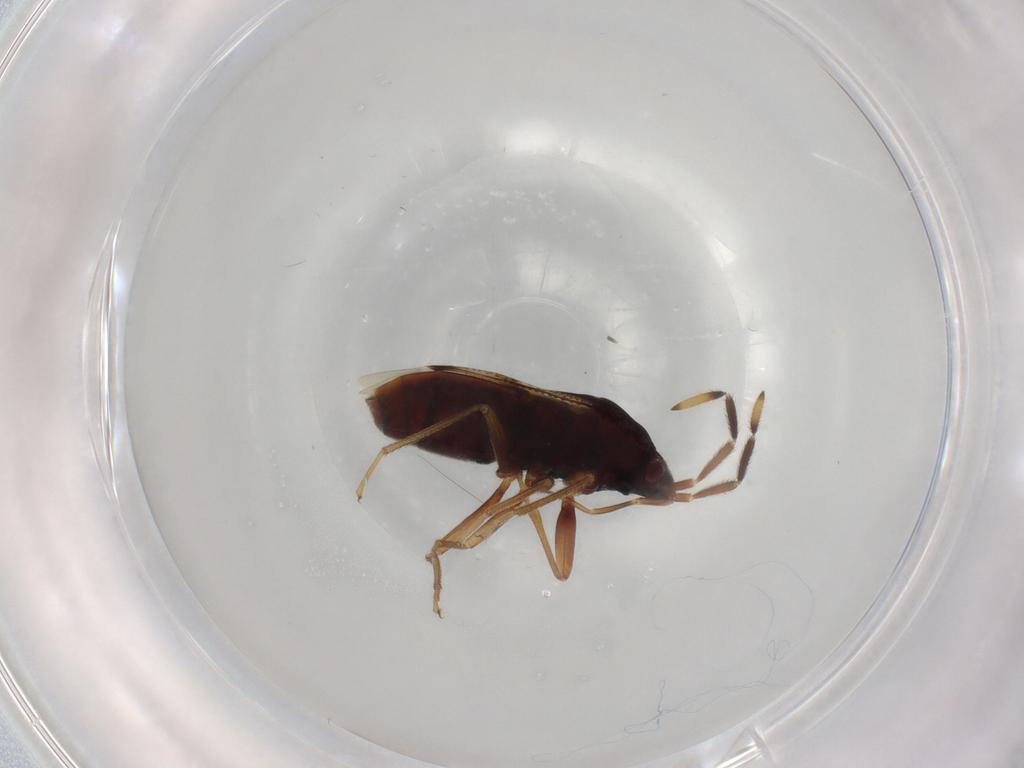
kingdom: Animalia
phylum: Arthropoda
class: Insecta
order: Hemiptera
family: Rhyparochromidae
